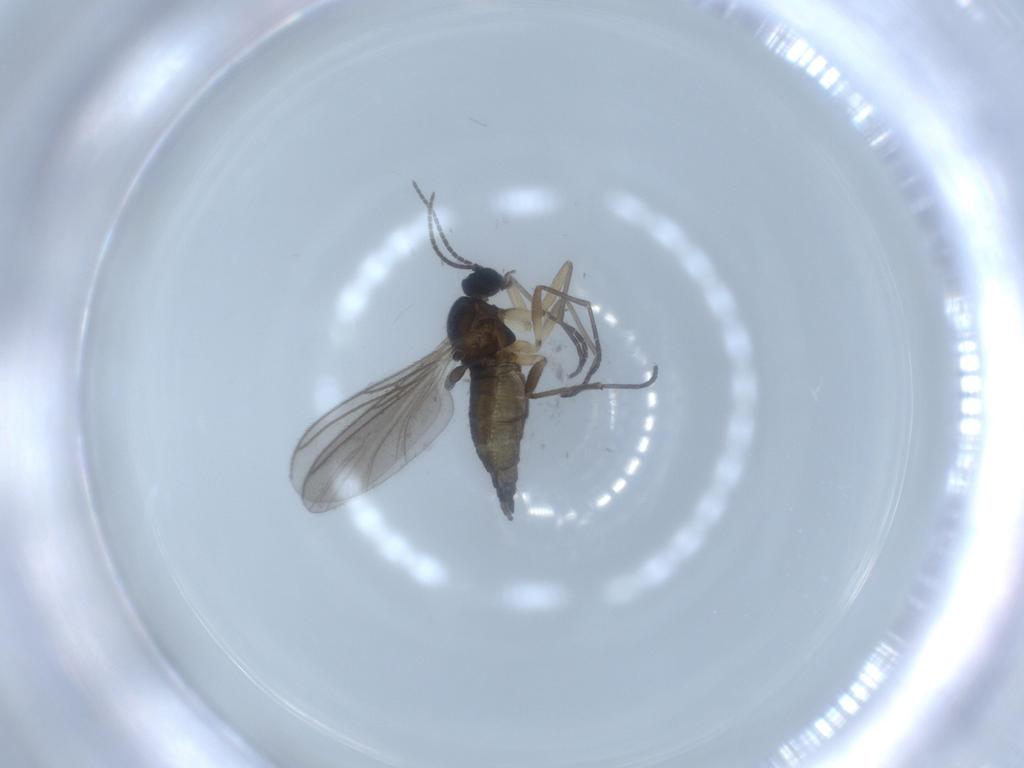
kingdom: Animalia
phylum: Arthropoda
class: Insecta
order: Diptera
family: Sciaridae
